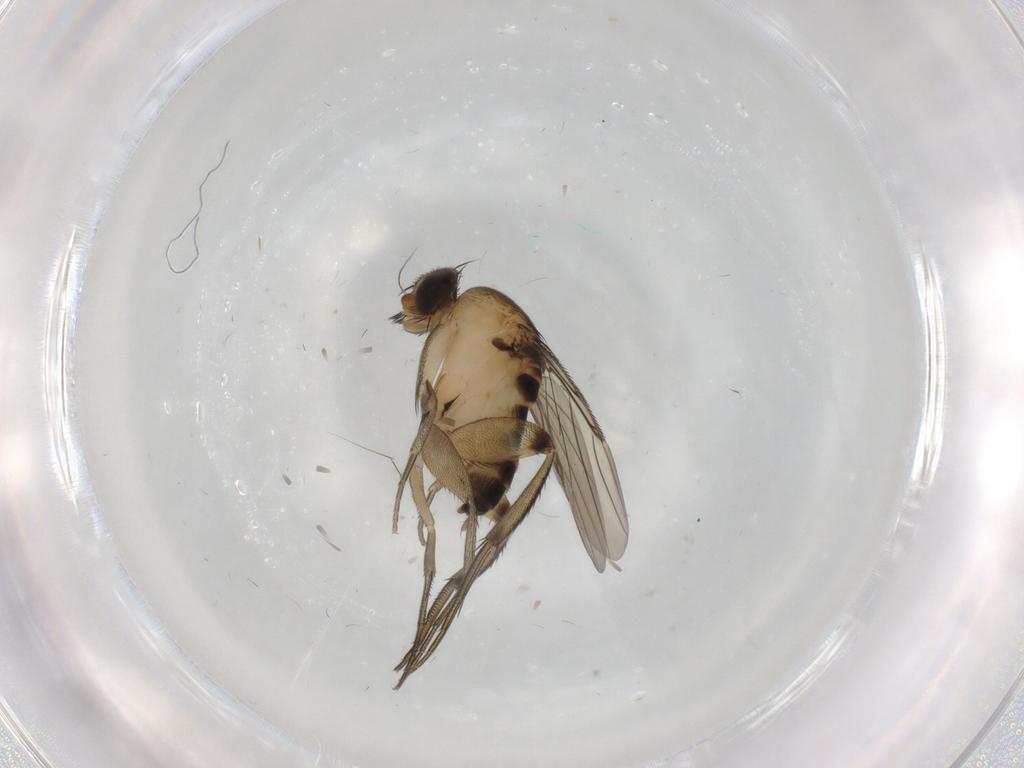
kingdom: Animalia
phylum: Arthropoda
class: Insecta
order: Diptera
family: Phoridae
